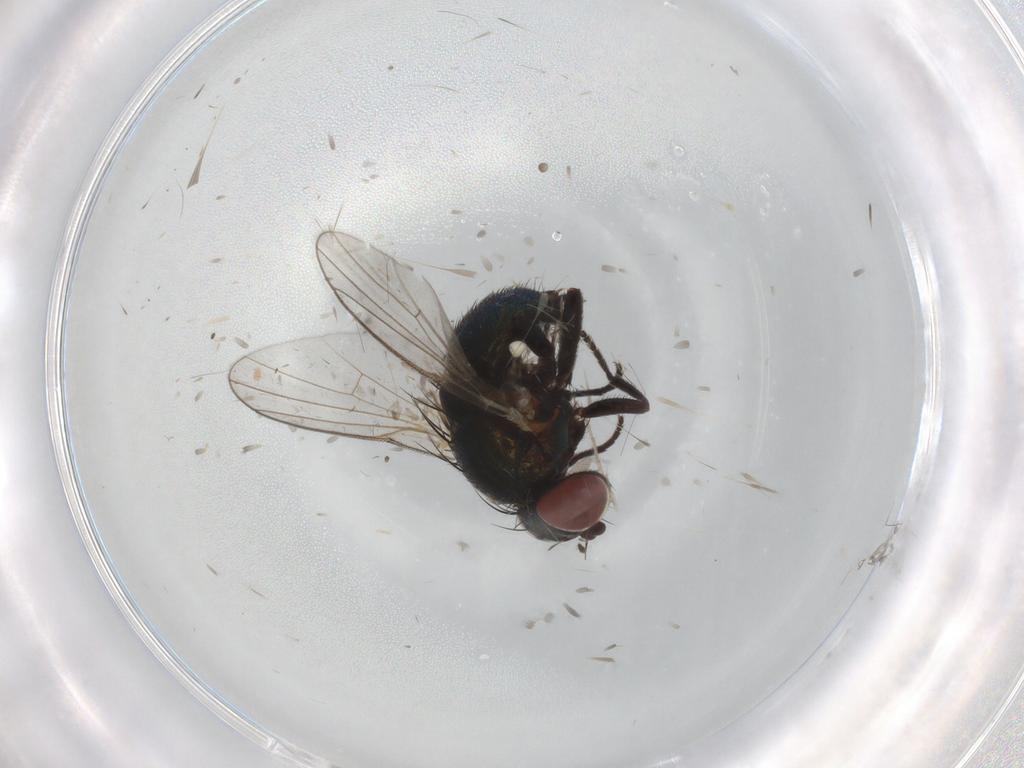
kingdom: Animalia
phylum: Arthropoda
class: Insecta
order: Diptera
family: Agromyzidae
